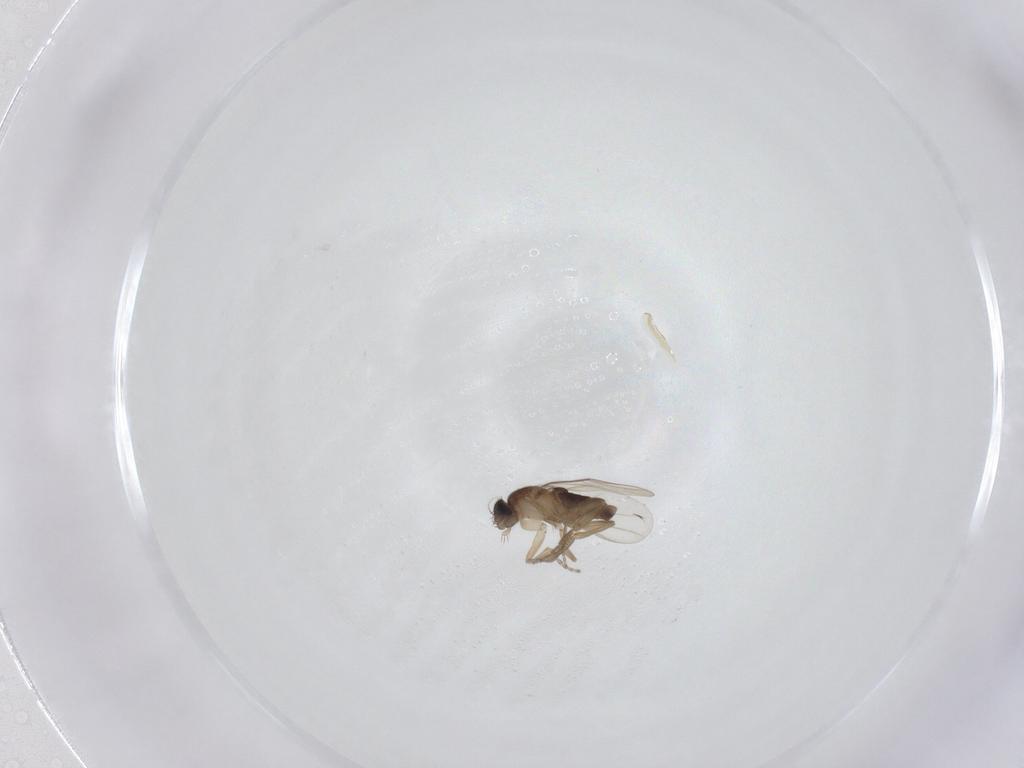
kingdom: Animalia
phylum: Arthropoda
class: Insecta
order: Diptera
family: Phoridae
